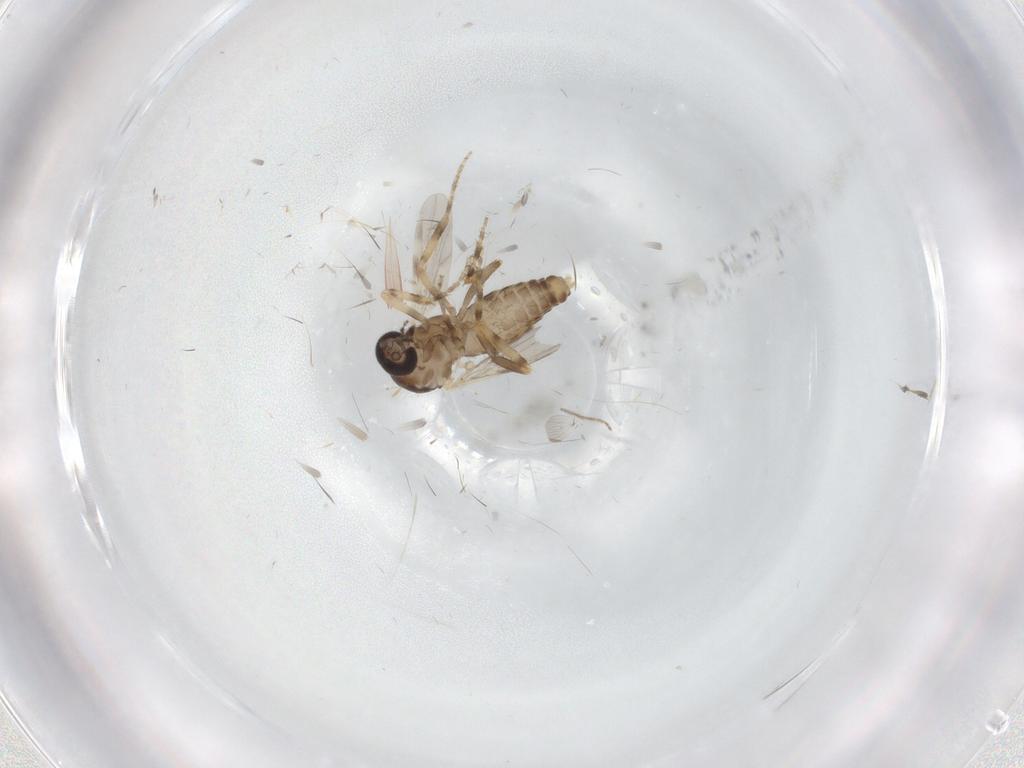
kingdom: Animalia
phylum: Arthropoda
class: Insecta
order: Diptera
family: Ceratopogonidae
